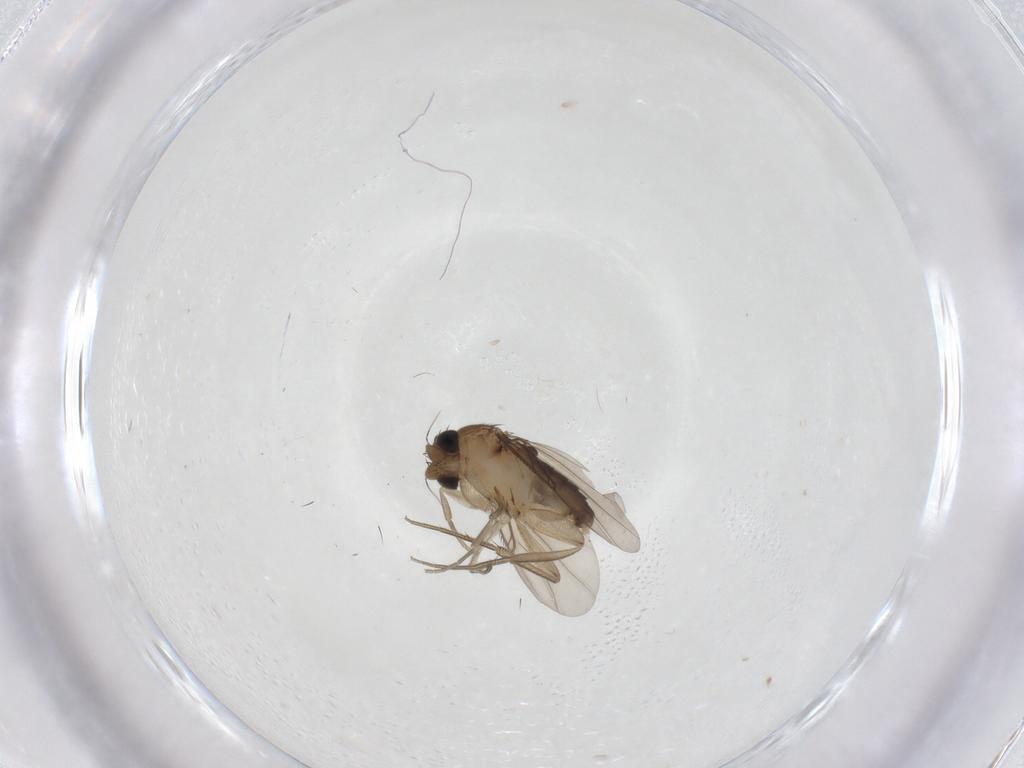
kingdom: Animalia
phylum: Arthropoda
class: Insecta
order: Diptera
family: Phoridae
